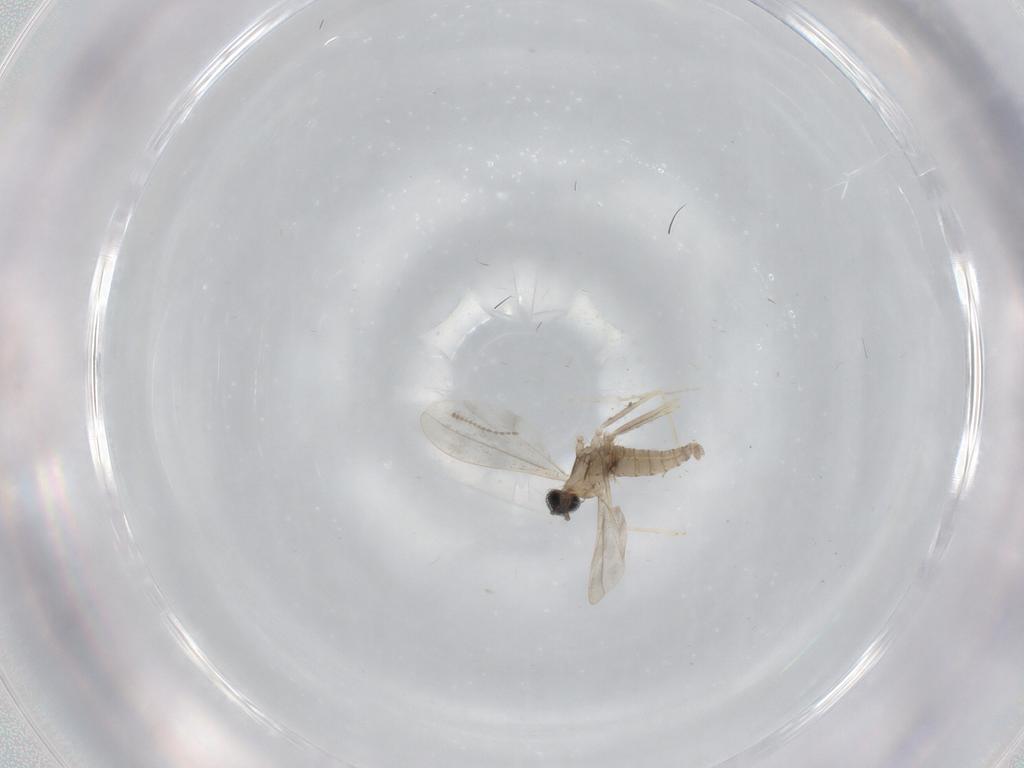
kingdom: Animalia
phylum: Arthropoda
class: Insecta
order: Diptera
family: Cecidomyiidae
